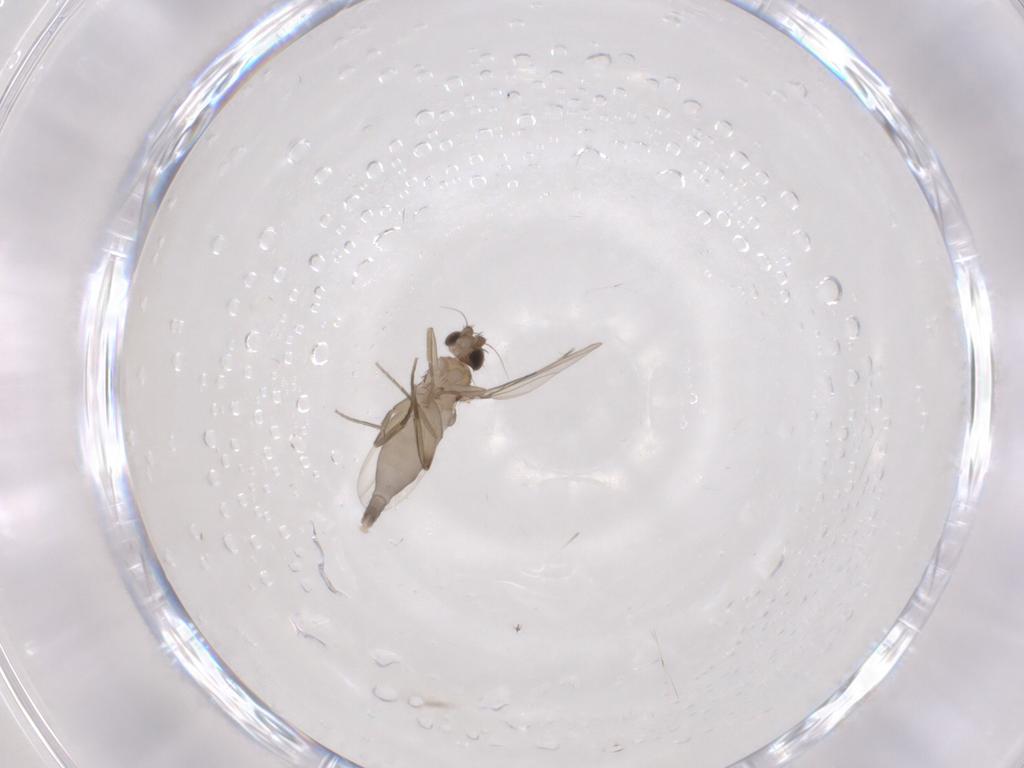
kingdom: Animalia
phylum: Arthropoda
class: Insecta
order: Diptera
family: Phoridae
